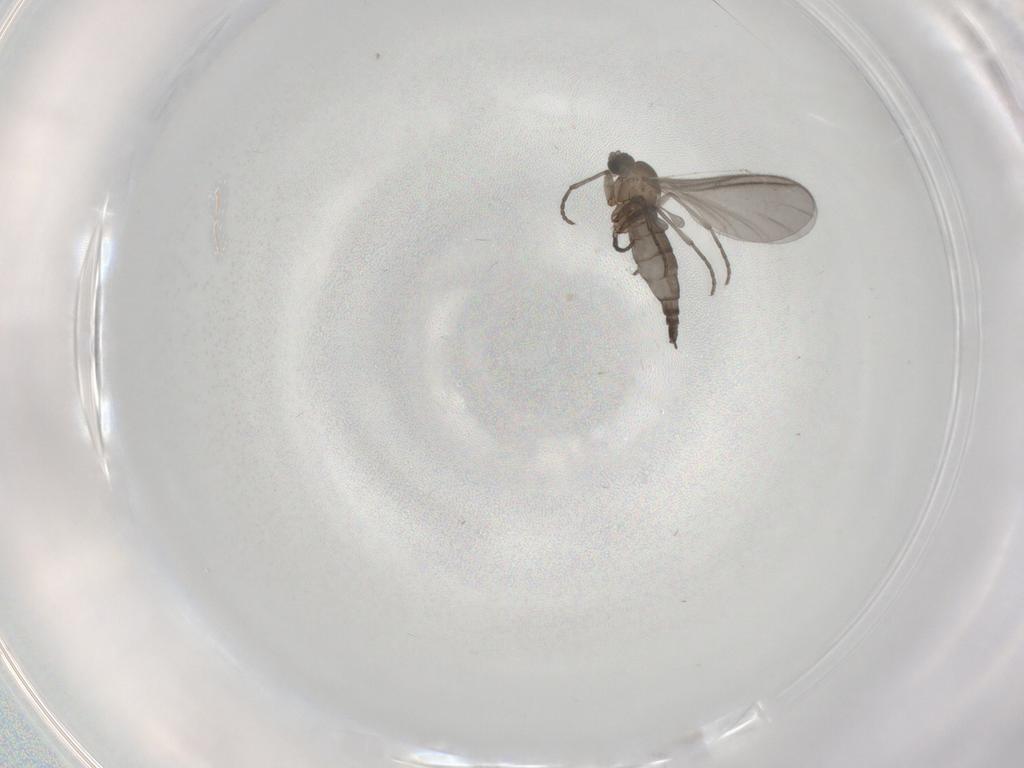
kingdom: Animalia
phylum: Arthropoda
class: Insecta
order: Diptera
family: Sciaridae
